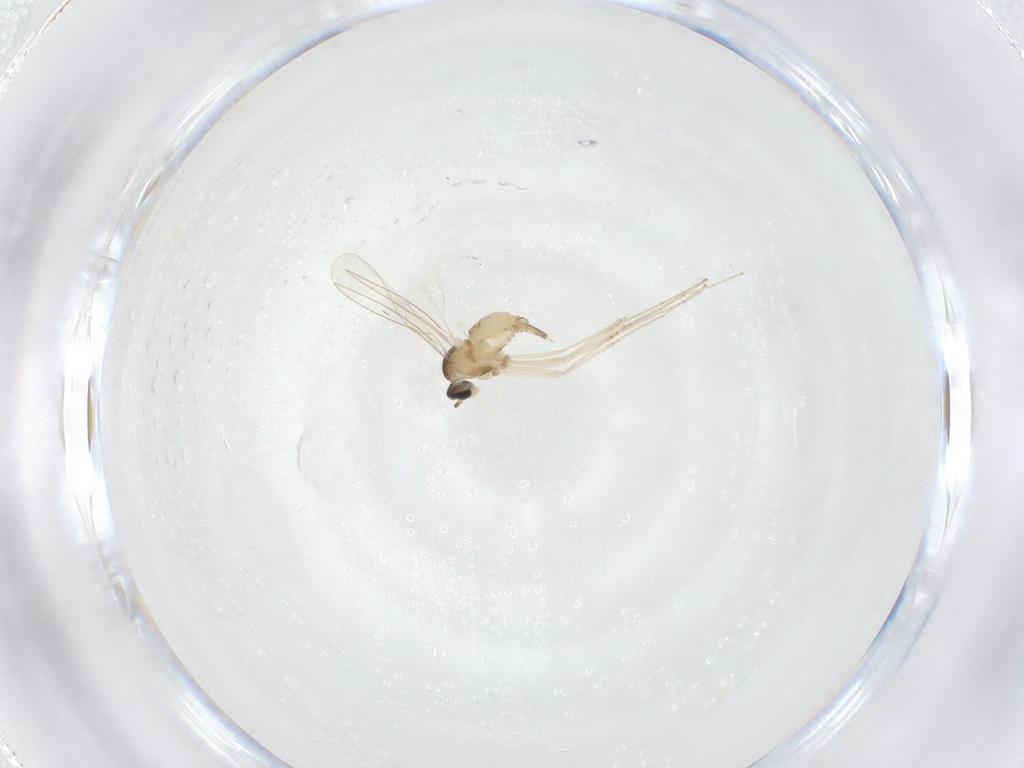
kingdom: Animalia
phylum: Arthropoda
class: Insecta
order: Diptera
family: Cecidomyiidae
